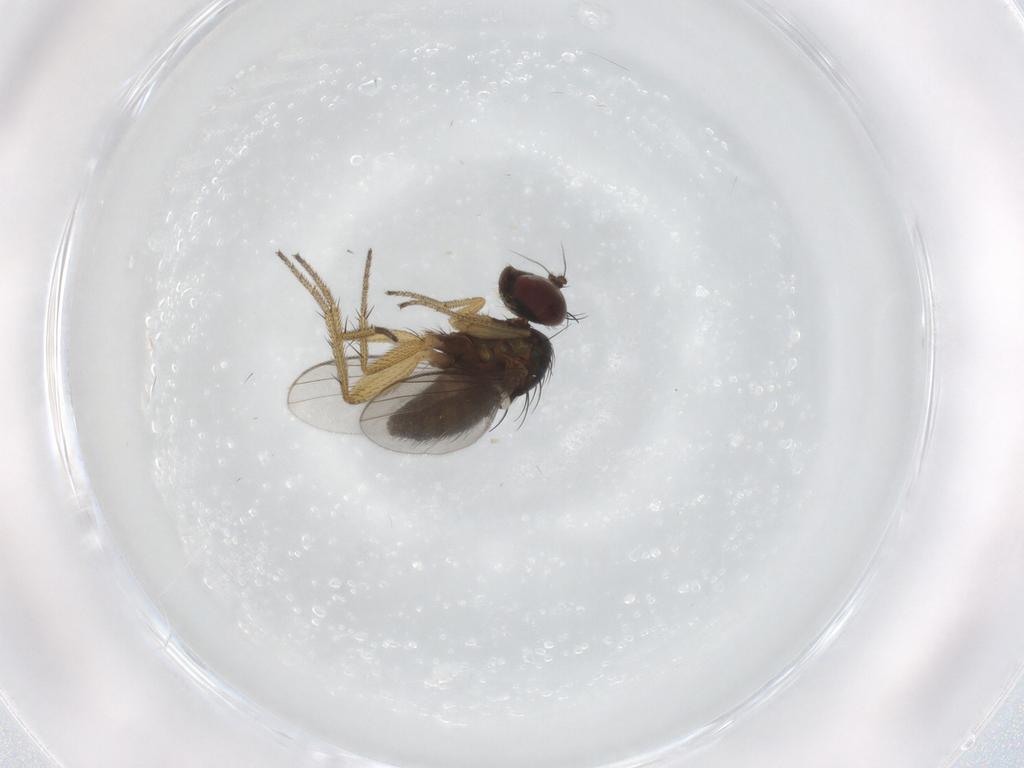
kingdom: Animalia
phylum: Arthropoda
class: Insecta
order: Diptera
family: Dolichopodidae
